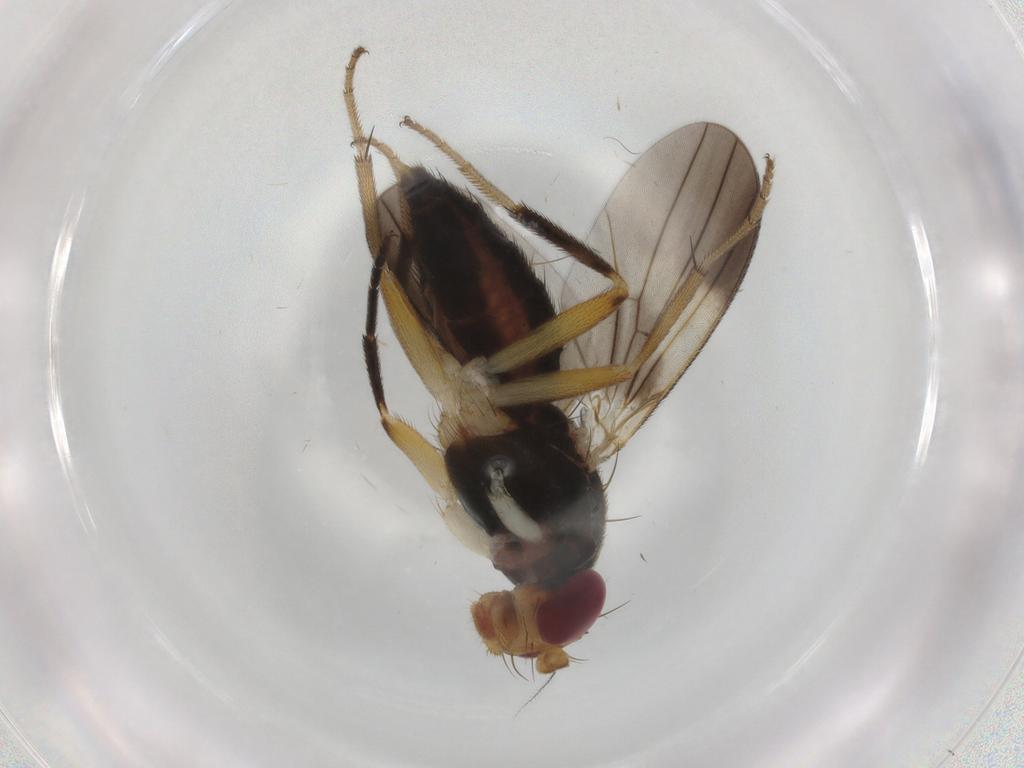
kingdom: Animalia
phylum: Arthropoda
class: Insecta
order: Diptera
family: Clusiidae
